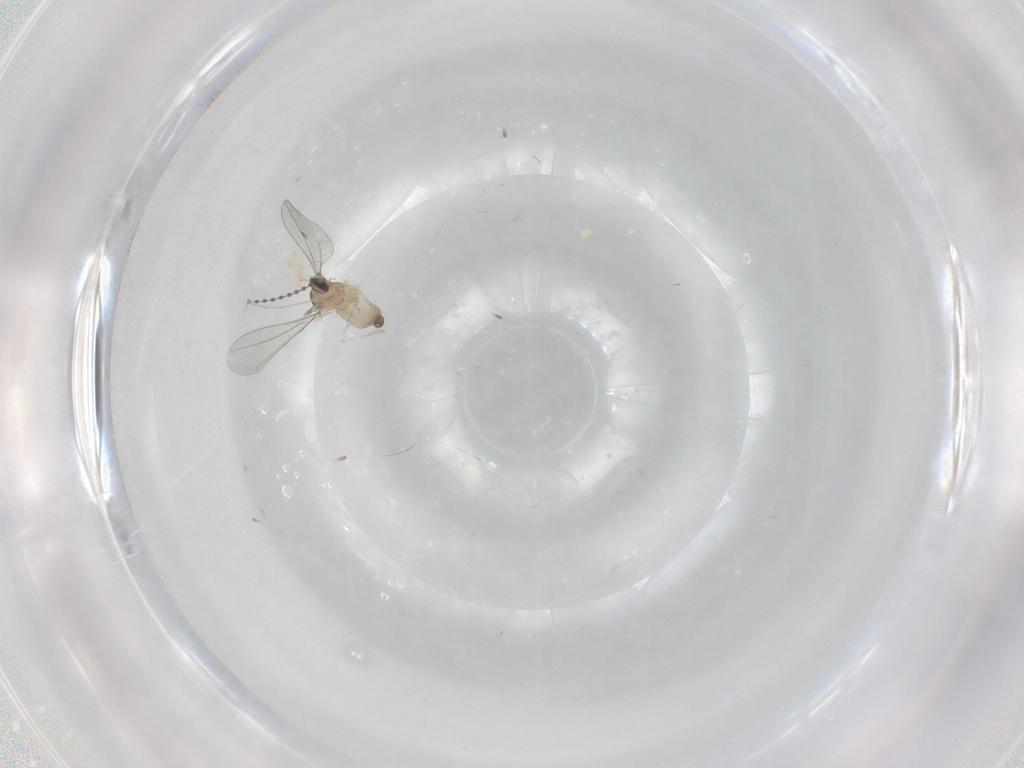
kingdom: Animalia
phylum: Arthropoda
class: Insecta
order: Diptera
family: Cecidomyiidae
